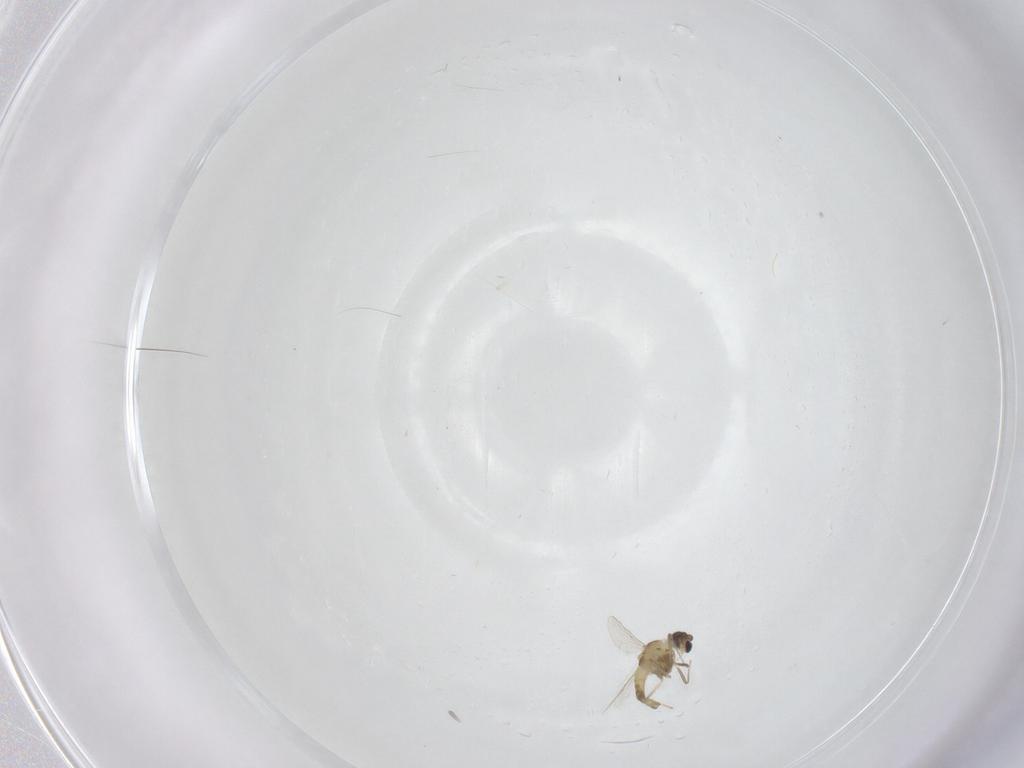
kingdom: Animalia
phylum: Arthropoda
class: Insecta
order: Diptera
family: Chironomidae
